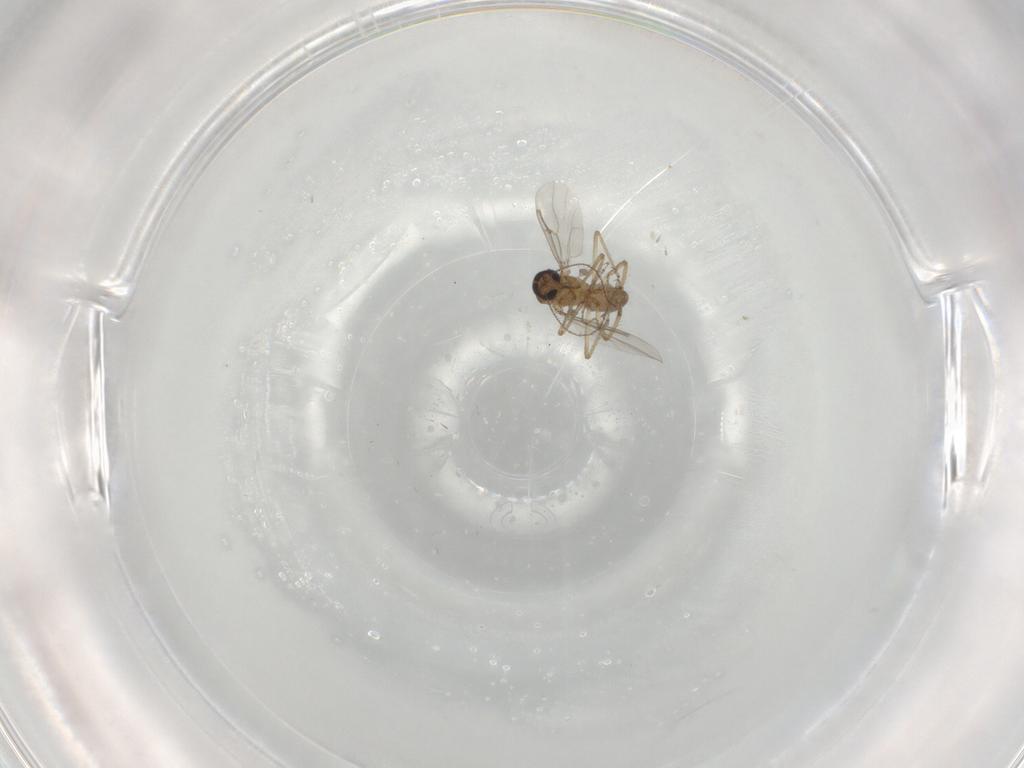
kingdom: Animalia
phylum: Arthropoda
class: Insecta
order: Diptera
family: Ceratopogonidae
